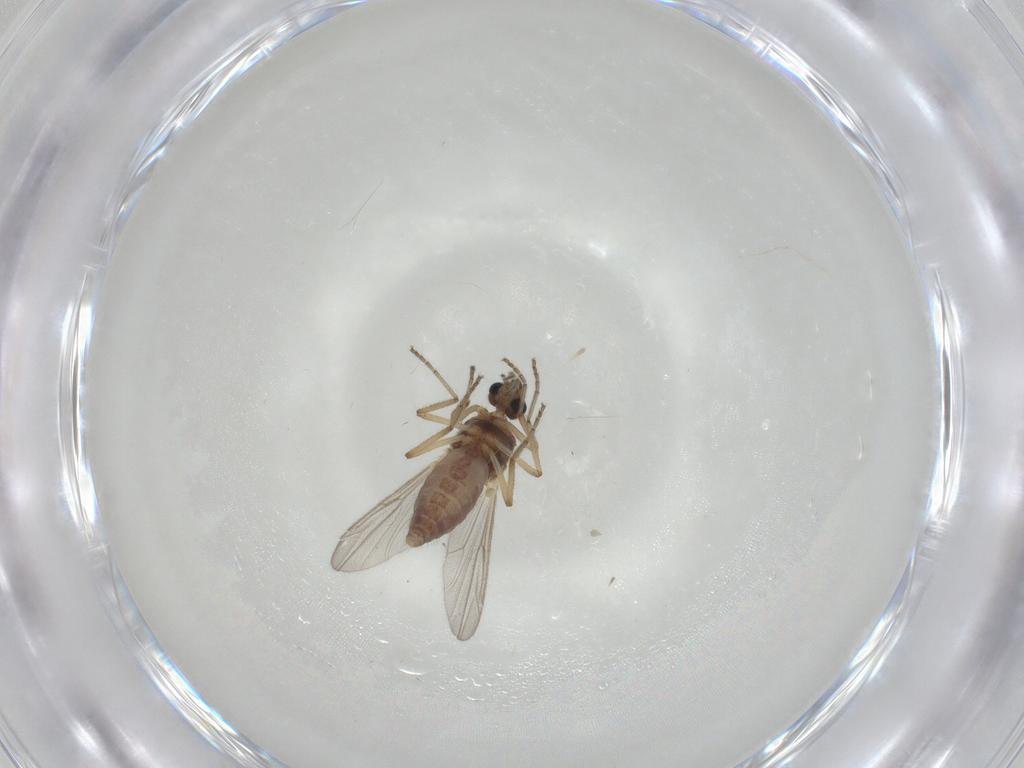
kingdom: Animalia
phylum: Arthropoda
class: Insecta
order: Diptera
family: Ceratopogonidae
